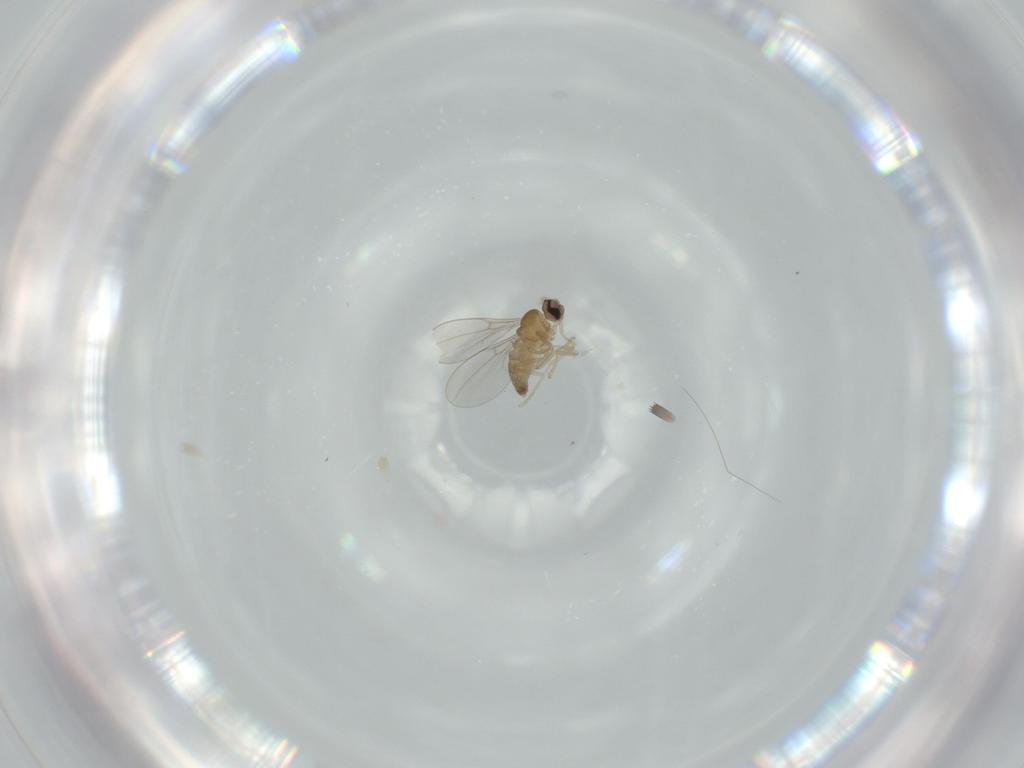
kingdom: Animalia
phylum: Arthropoda
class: Insecta
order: Diptera
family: Cecidomyiidae
